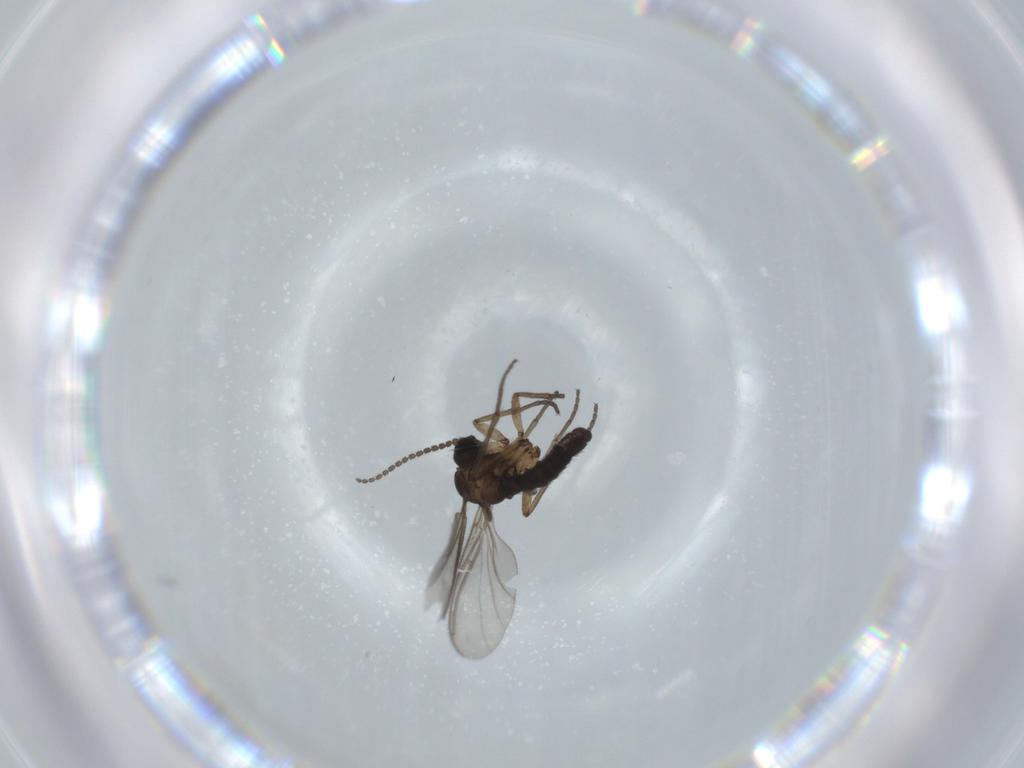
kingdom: Animalia
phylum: Arthropoda
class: Insecta
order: Diptera
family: Sciaridae
